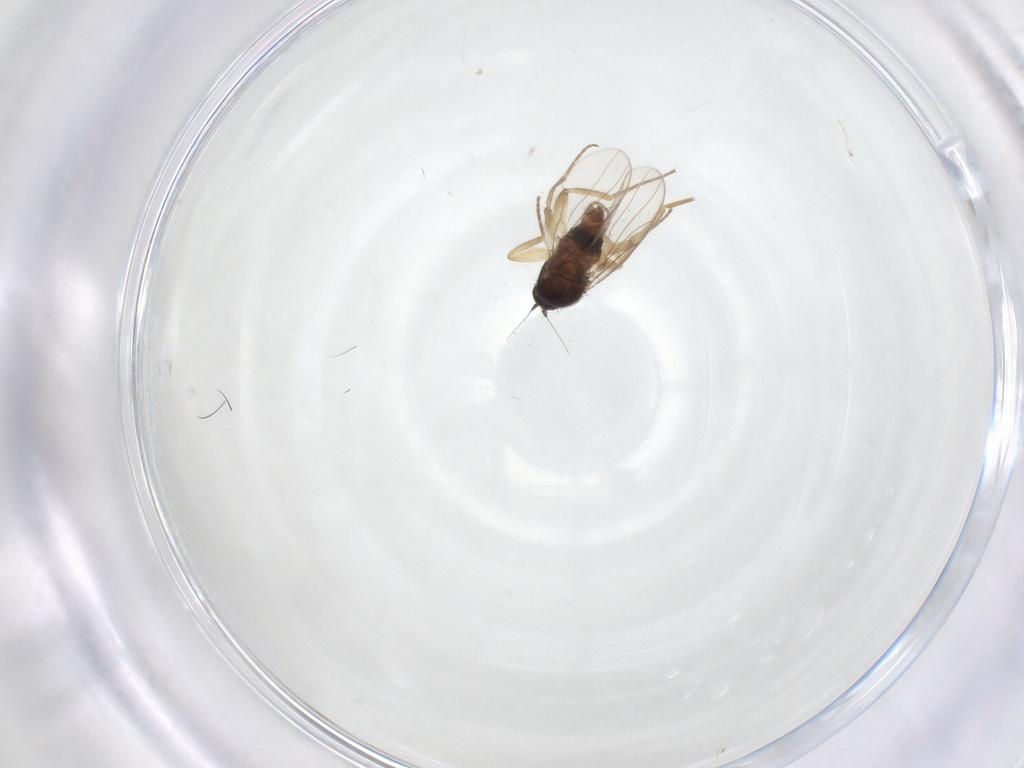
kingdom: Animalia
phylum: Arthropoda
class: Insecta
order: Diptera
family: Hybotidae
